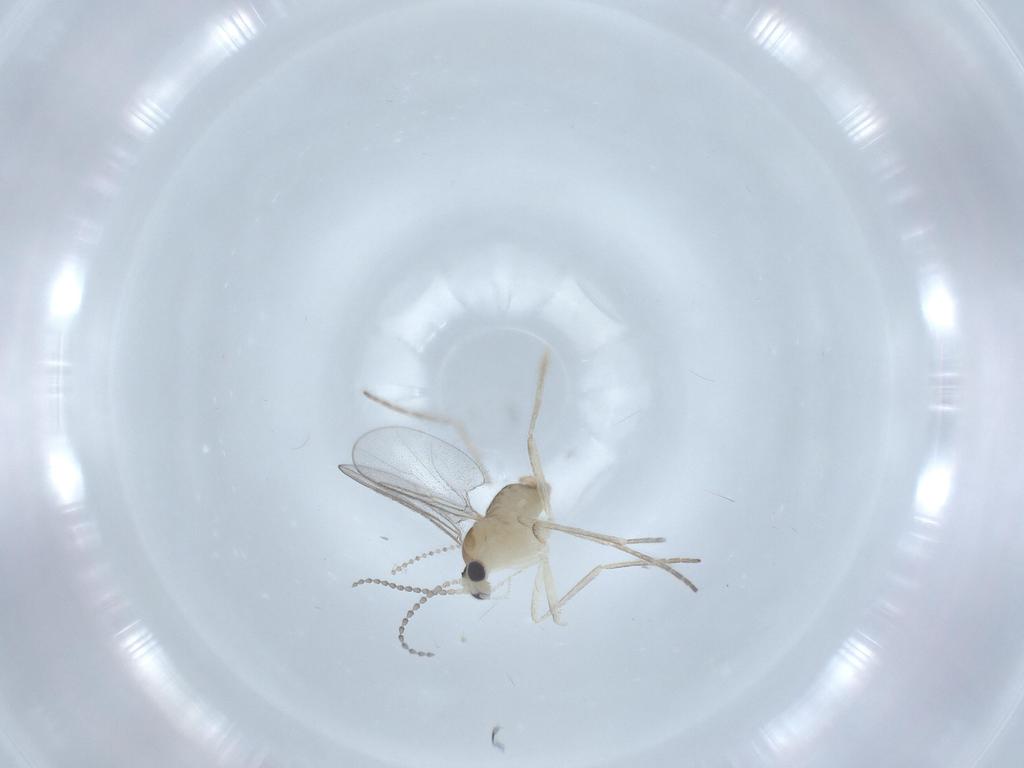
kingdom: Animalia
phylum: Arthropoda
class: Insecta
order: Diptera
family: Cecidomyiidae
